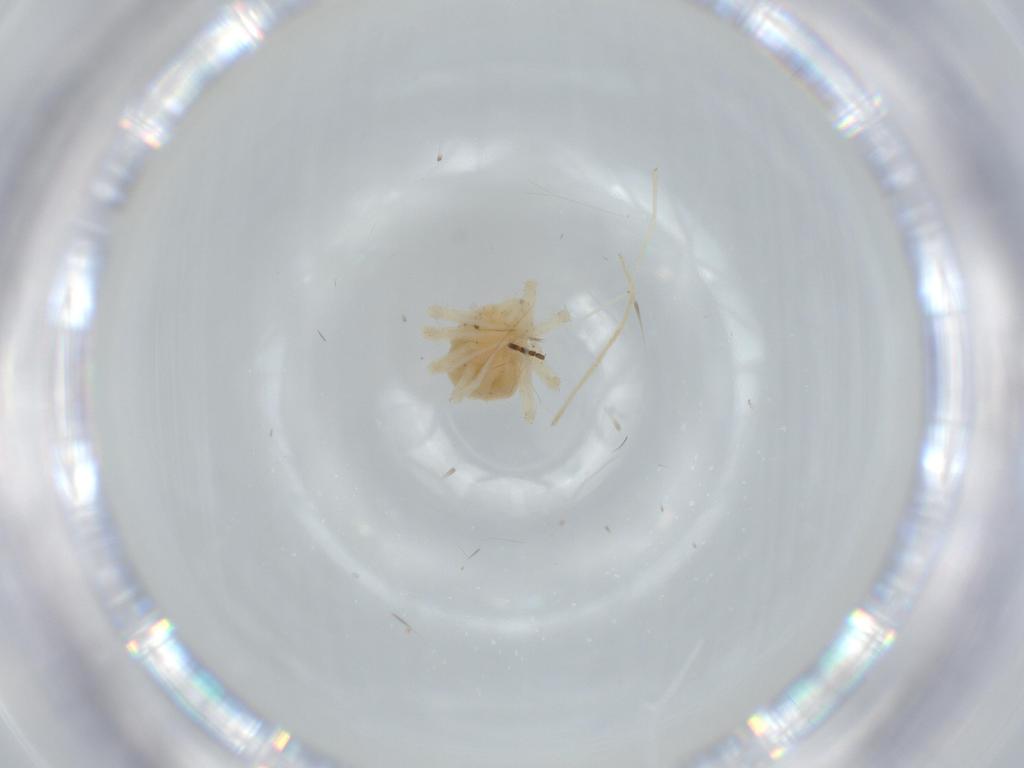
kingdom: Animalia
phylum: Arthropoda
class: Arachnida
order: Trombidiformes
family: Anystidae
